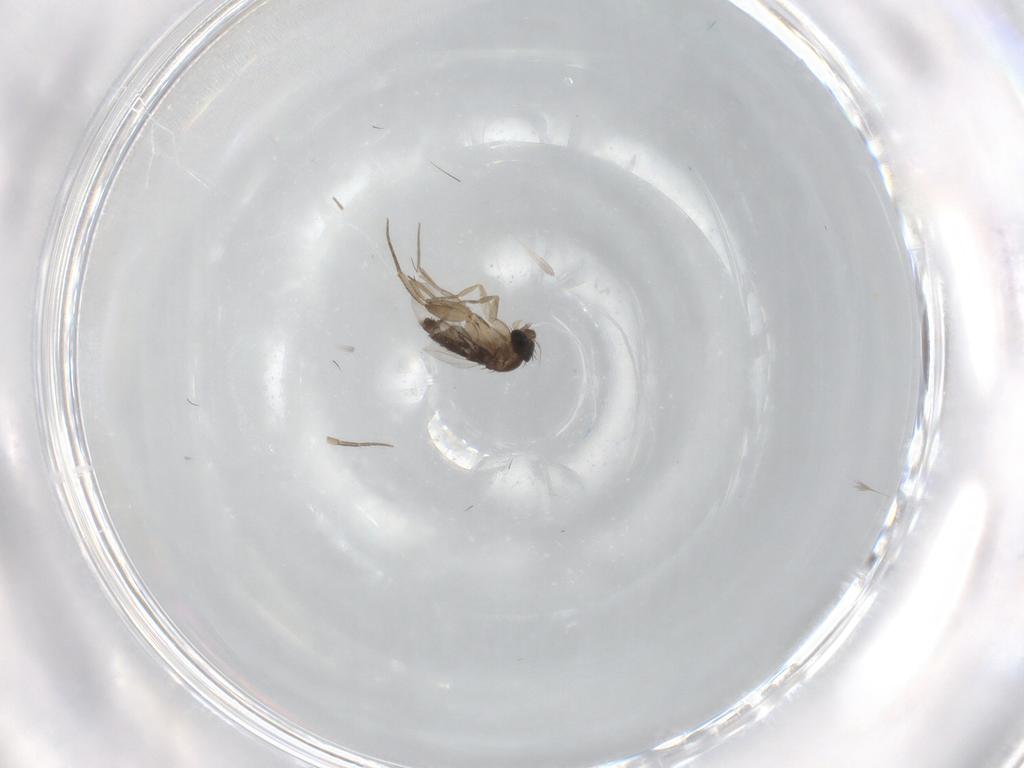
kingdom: Animalia
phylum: Arthropoda
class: Insecta
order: Diptera
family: Phoridae
